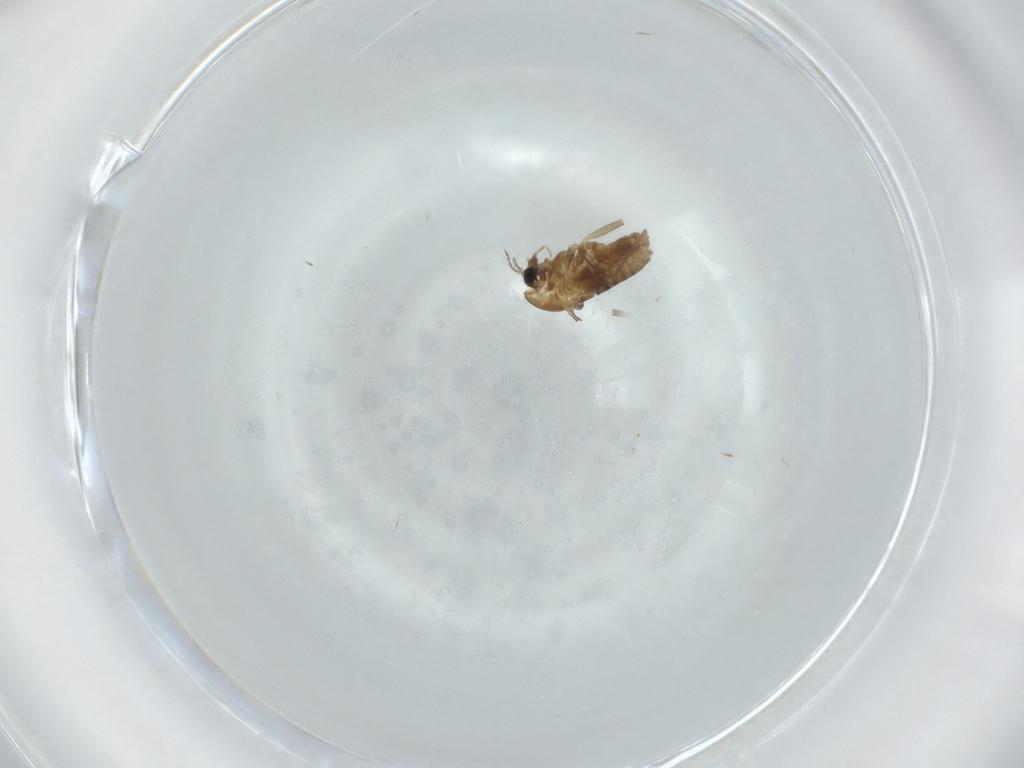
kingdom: Animalia
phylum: Arthropoda
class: Insecta
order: Diptera
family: Chironomidae
